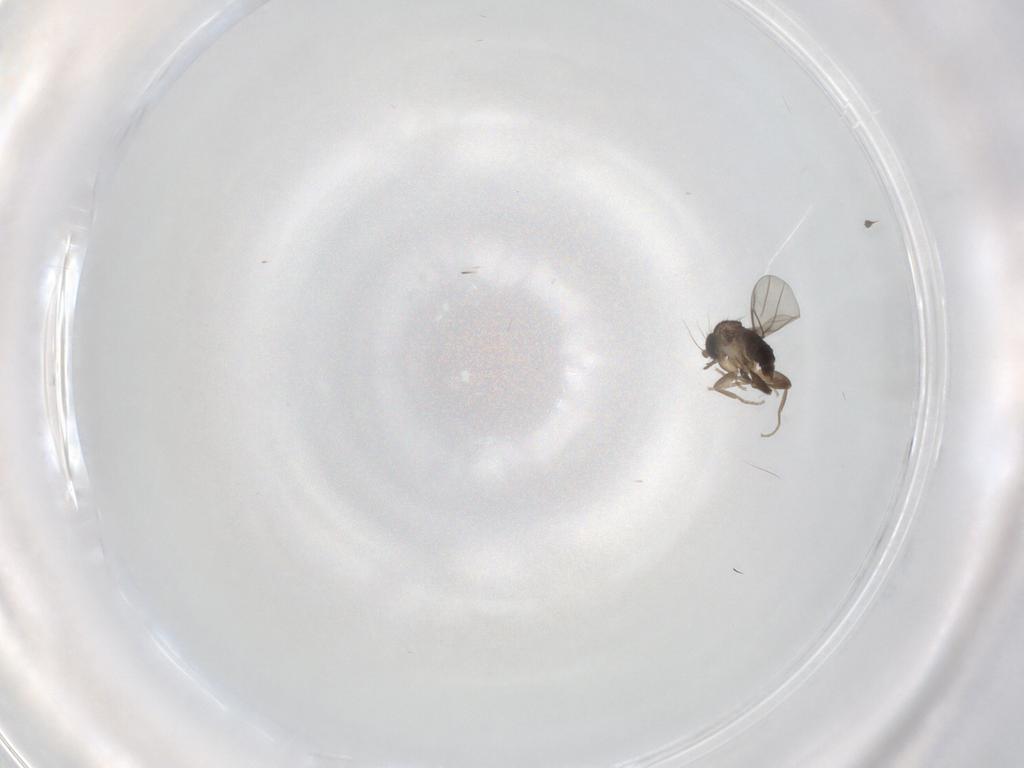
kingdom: Animalia
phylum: Arthropoda
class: Insecta
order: Diptera
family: Cecidomyiidae
